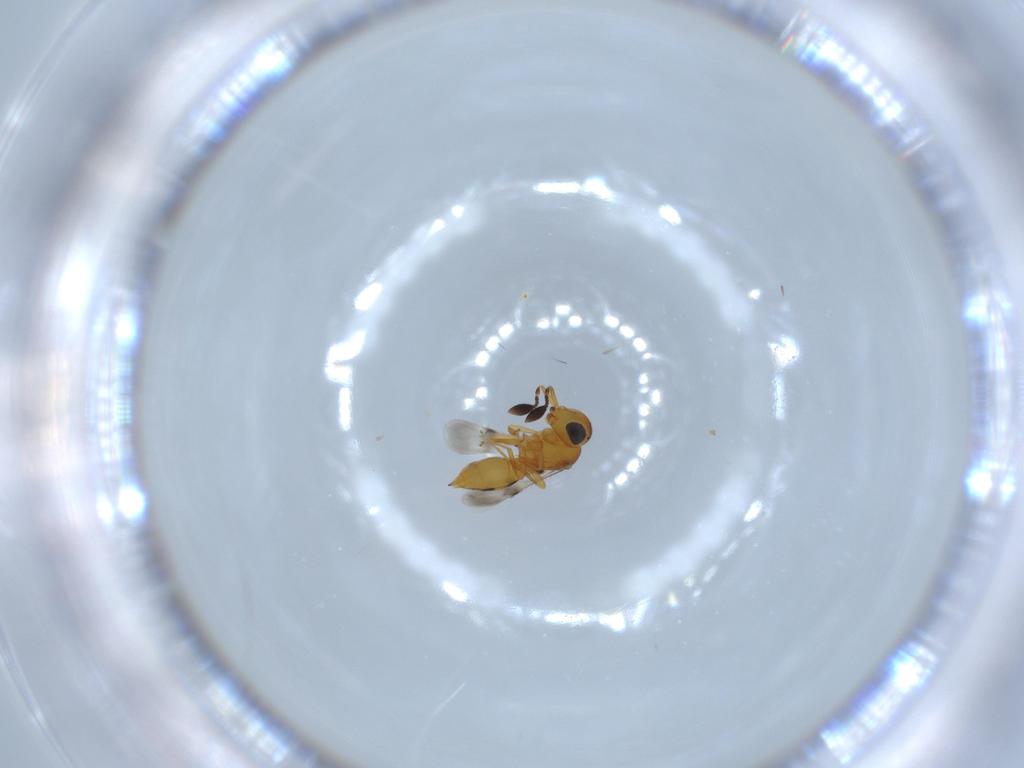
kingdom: Animalia
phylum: Arthropoda
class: Insecta
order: Hymenoptera
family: Scelionidae
